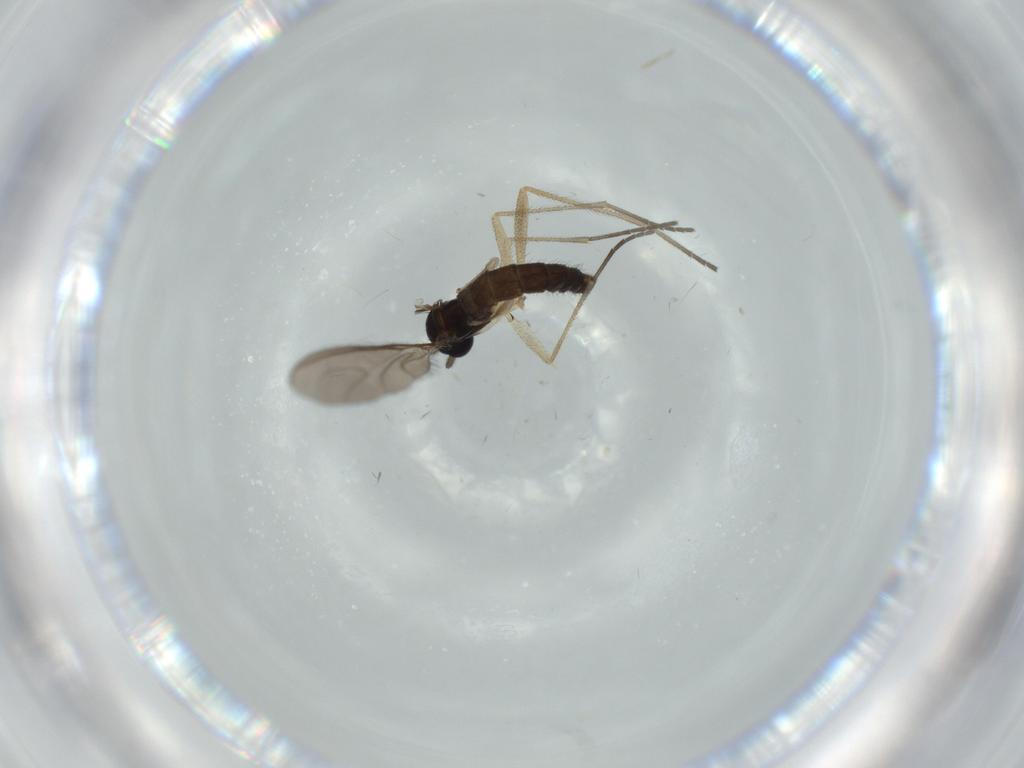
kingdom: Animalia
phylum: Arthropoda
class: Insecta
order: Diptera
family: Sciaridae
